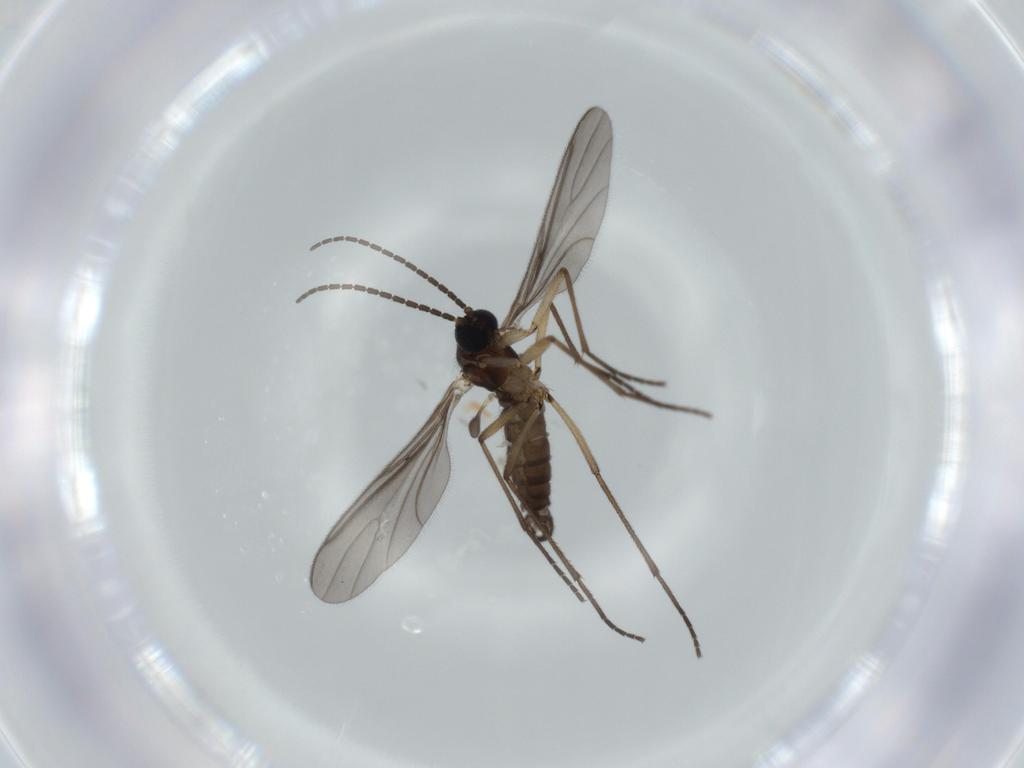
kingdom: Animalia
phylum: Arthropoda
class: Insecta
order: Diptera
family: Sciaridae
